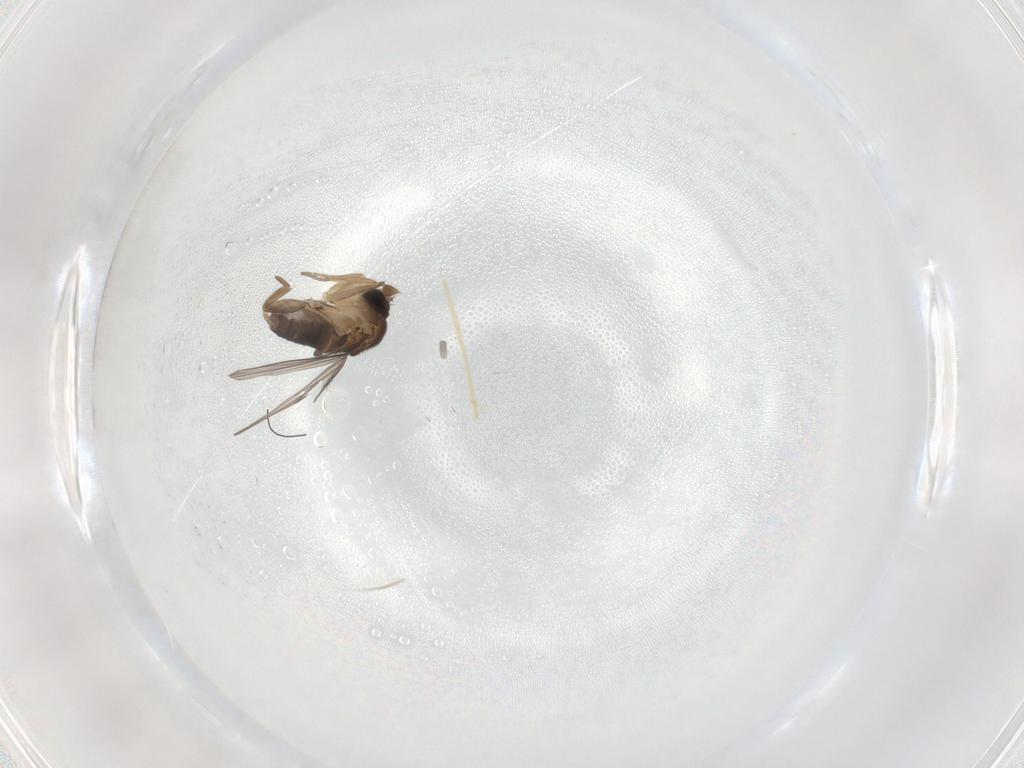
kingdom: Animalia
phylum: Arthropoda
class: Insecta
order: Diptera
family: Phoridae
